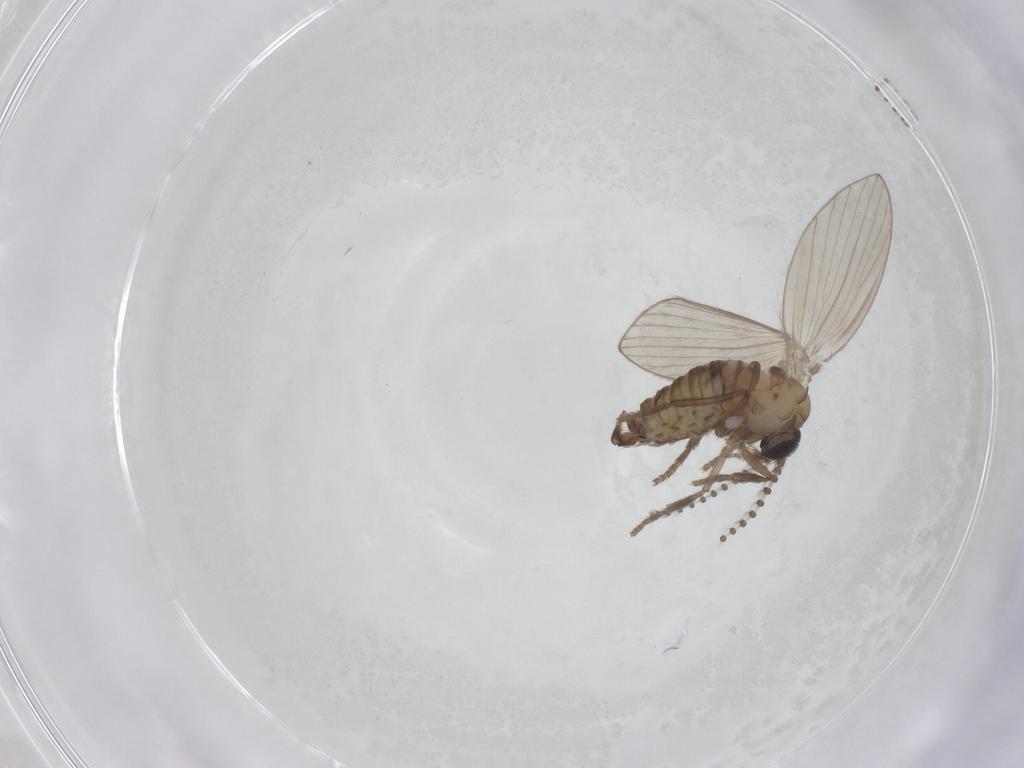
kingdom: Animalia
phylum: Arthropoda
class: Insecta
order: Diptera
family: Psychodidae
